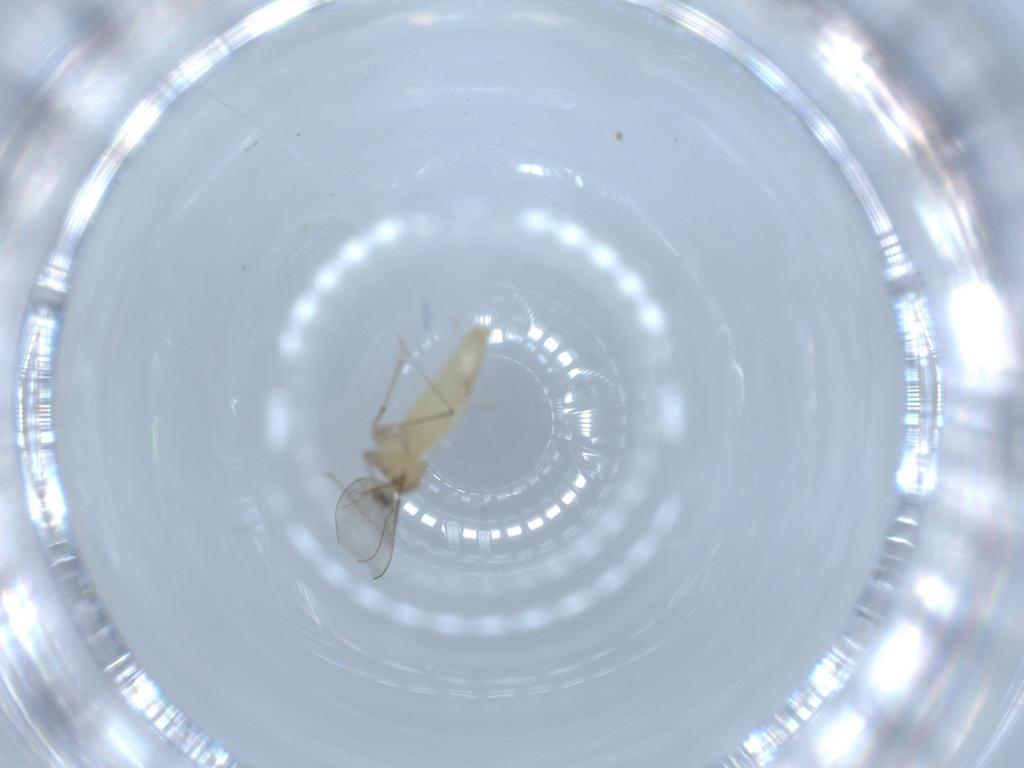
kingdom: Animalia
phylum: Arthropoda
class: Insecta
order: Diptera
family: Cecidomyiidae
